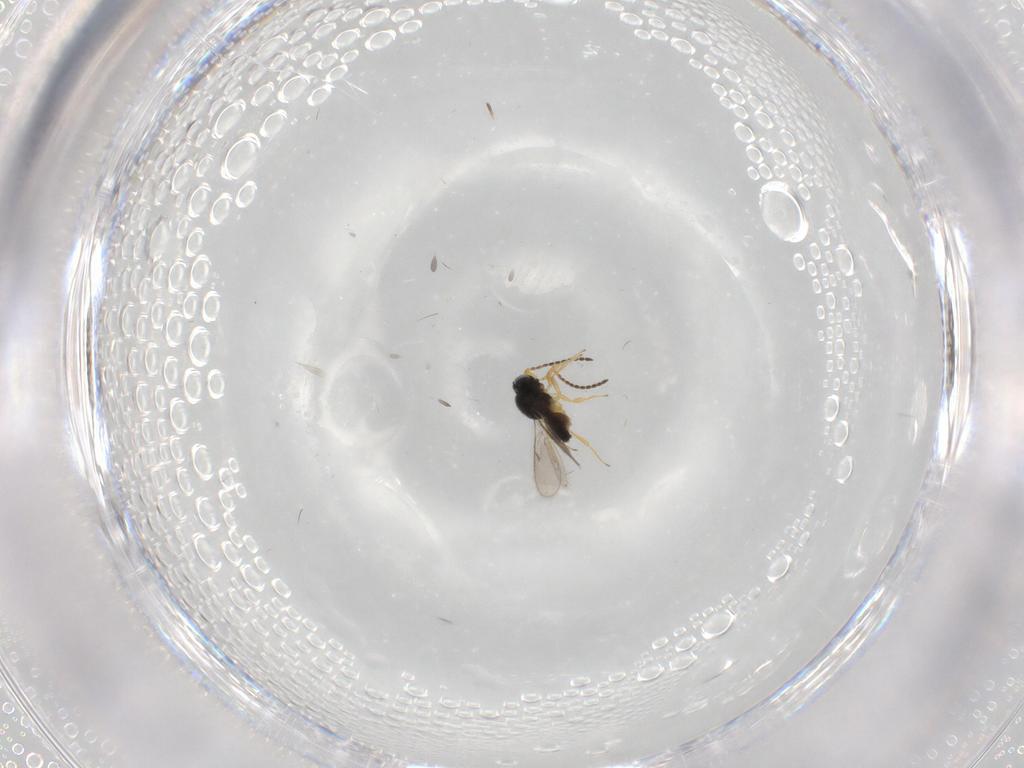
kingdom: Animalia
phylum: Arthropoda
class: Insecta
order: Hymenoptera
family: Scelionidae
